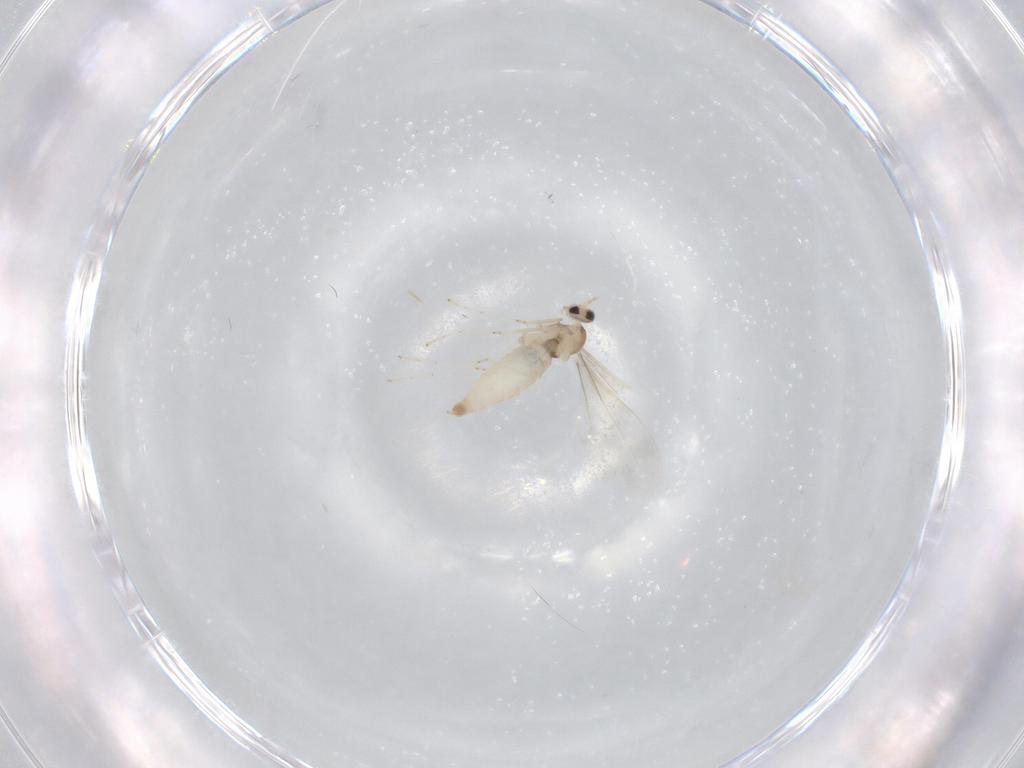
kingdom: Animalia
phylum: Arthropoda
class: Insecta
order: Diptera
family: Cecidomyiidae
